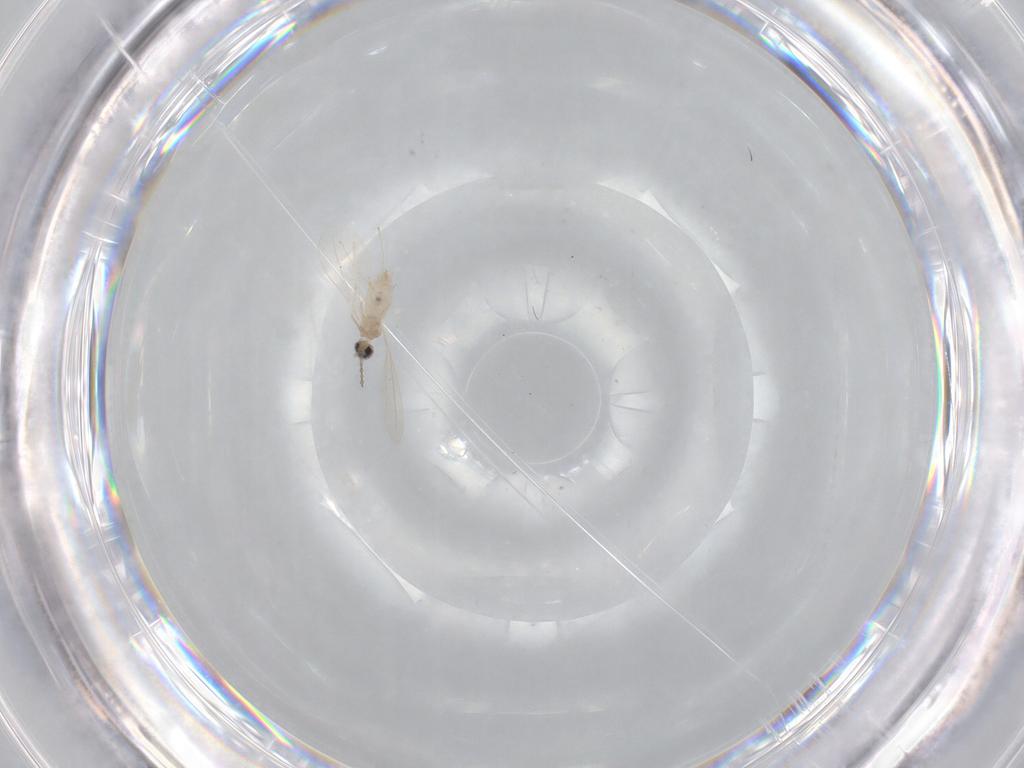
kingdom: Animalia
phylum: Arthropoda
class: Insecta
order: Diptera
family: Cecidomyiidae
